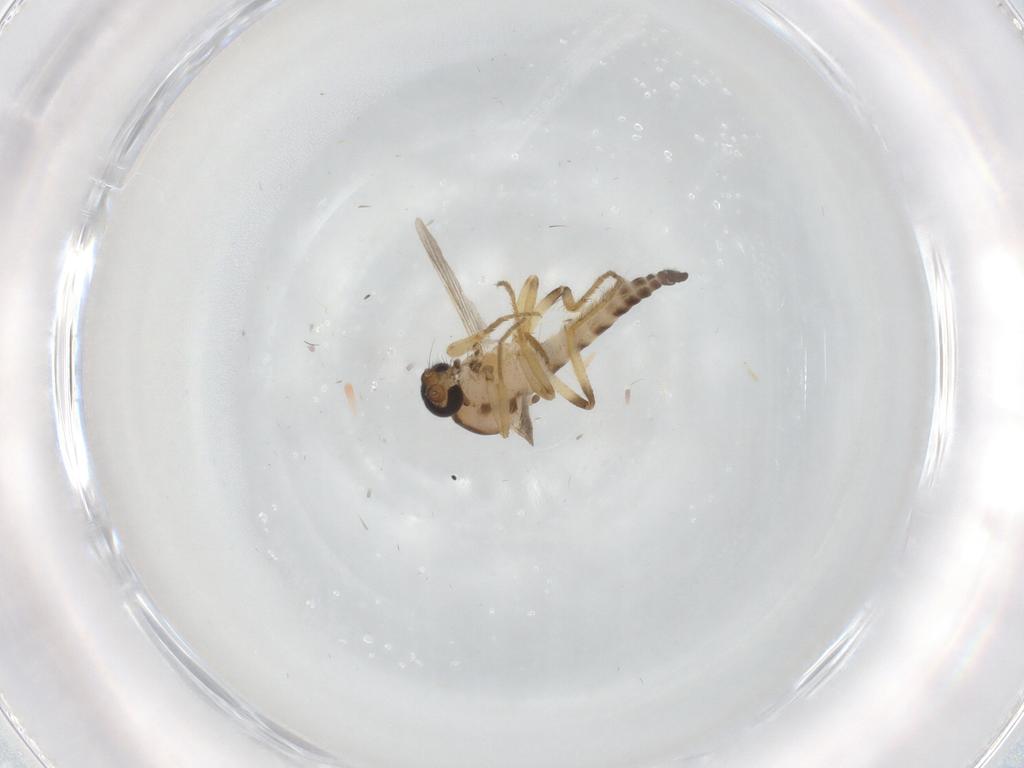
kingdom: Animalia
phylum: Arthropoda
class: Insecta
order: Diptera
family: Ceratopogonidae
